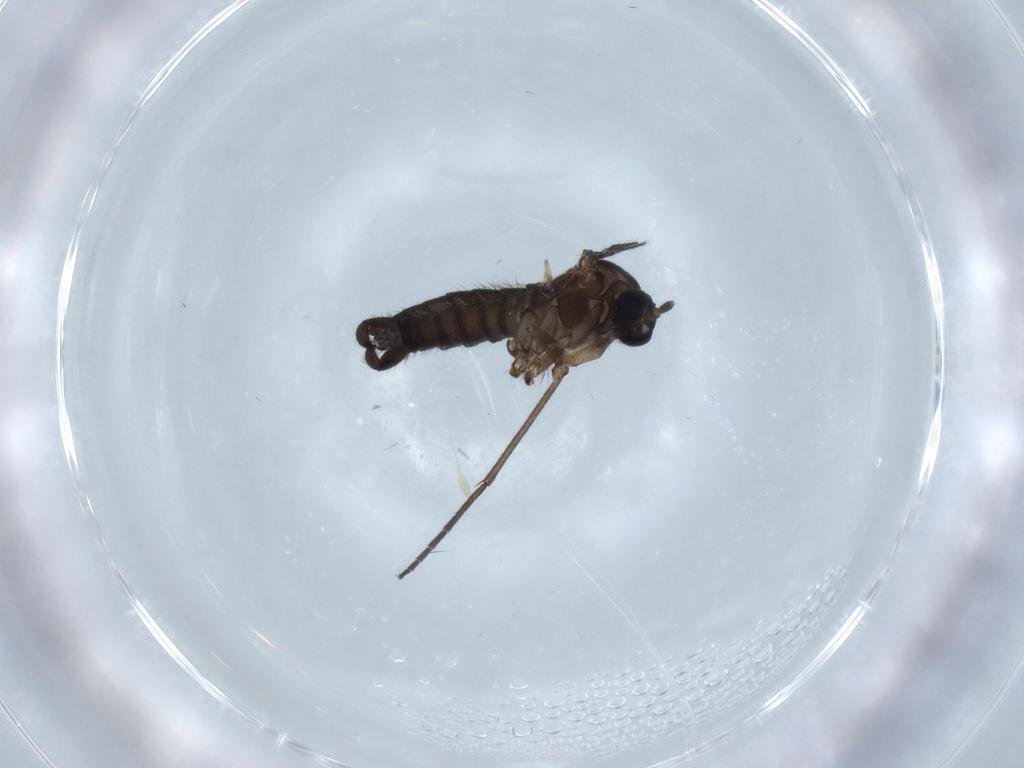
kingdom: Animalia
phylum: Arthropoda
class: Insecta
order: Diptera
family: Sciaridae
